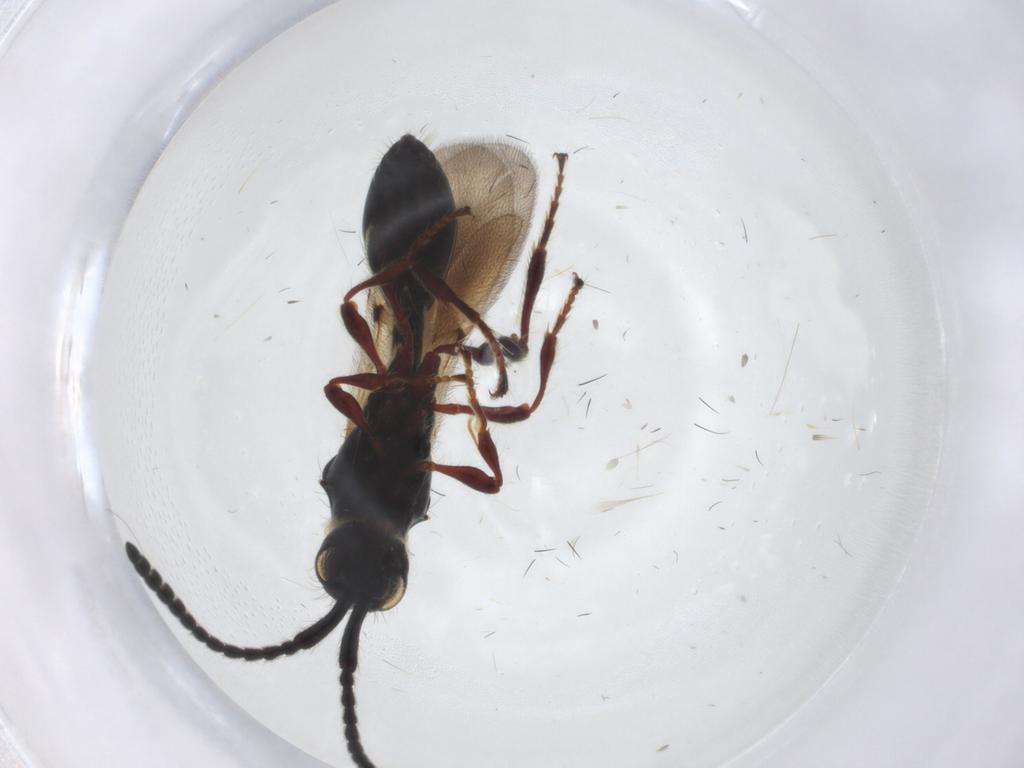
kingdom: Animalia
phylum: Arthropoda
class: Insecta
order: Hymenoptera
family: Diapriidae
